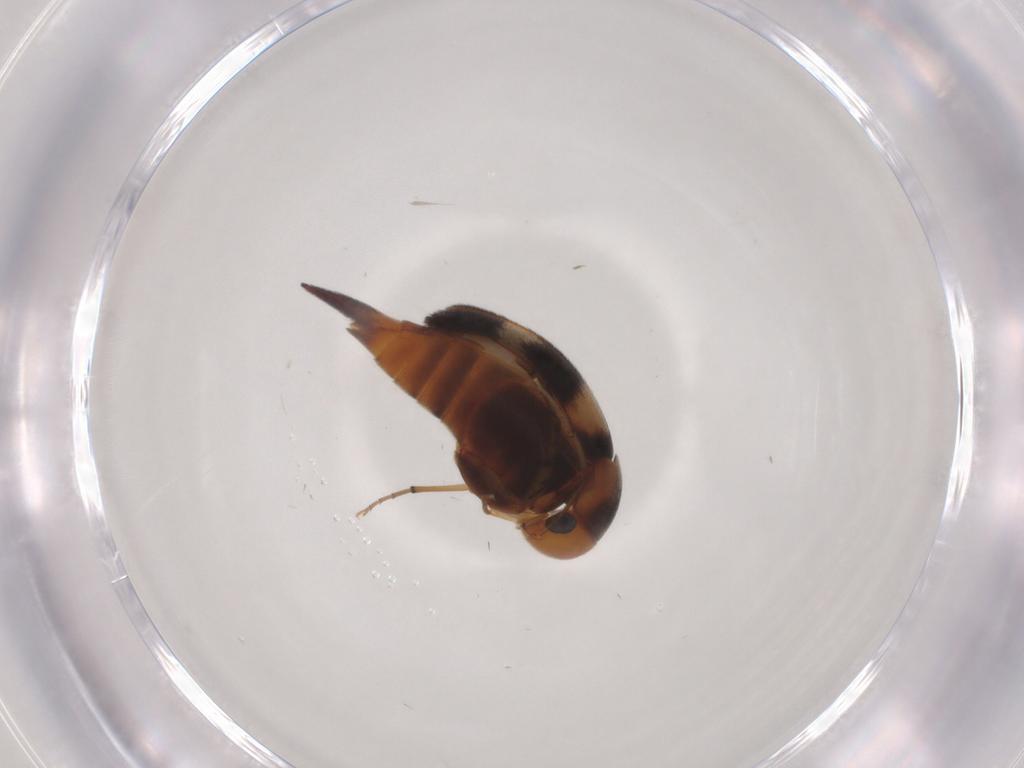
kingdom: Animalia
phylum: Arthropoda
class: Insecta
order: Coleoptera
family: Mordellidae
